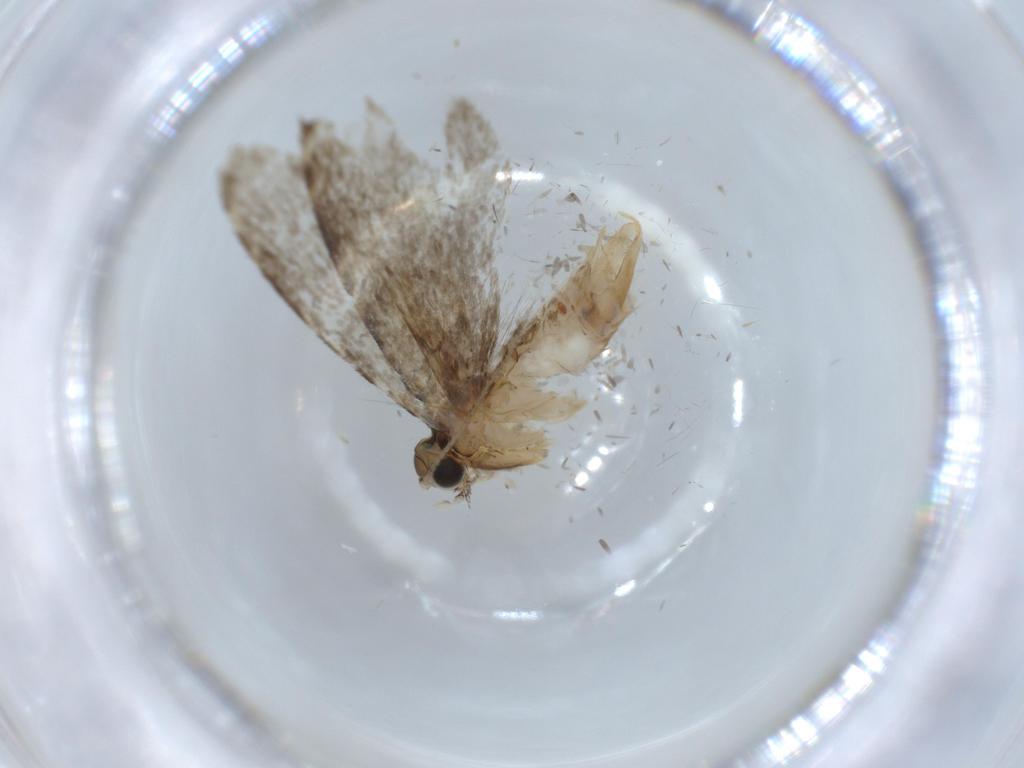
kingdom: Animalia
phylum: Arthropoda
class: Insecta
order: Lepidoptera
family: Tineidae
